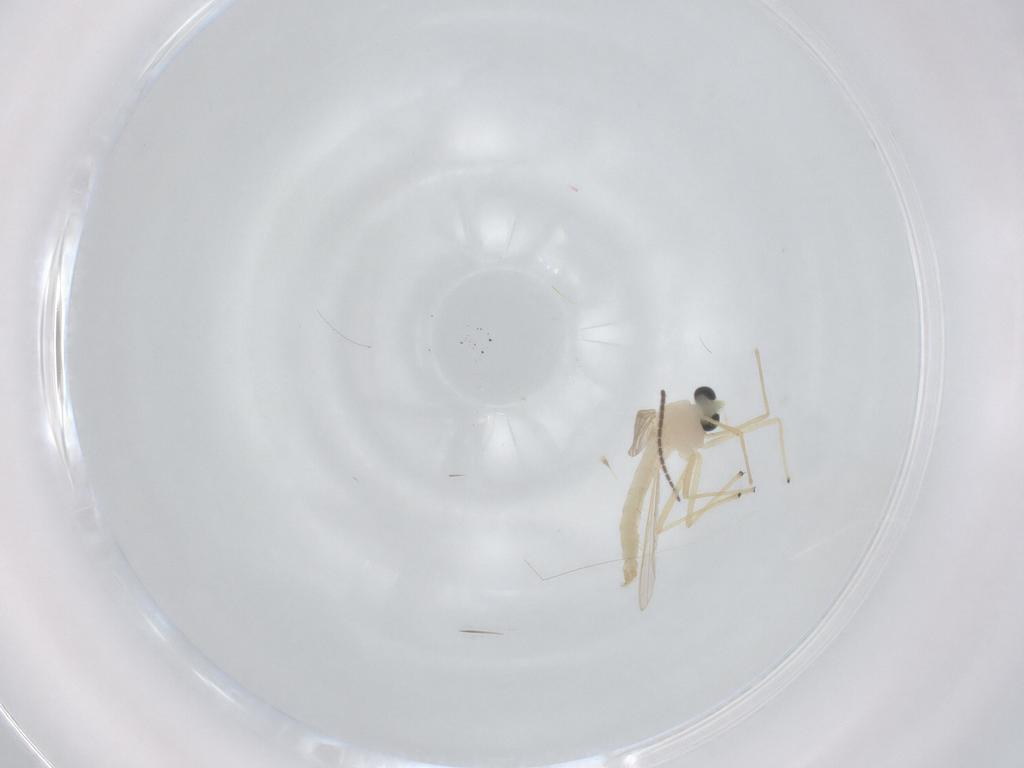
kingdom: Animalia
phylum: Arthropoda
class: Insecta
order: Diptera
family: Ceratopogonidae
